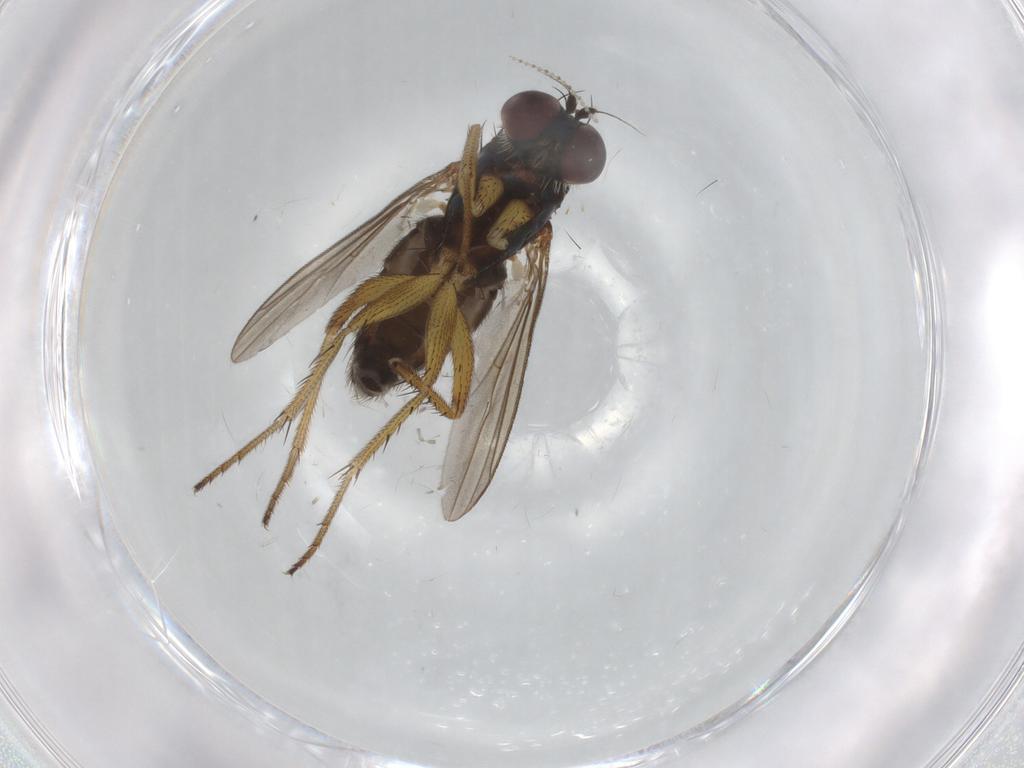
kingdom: Animalia
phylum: Arthropoda
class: Insecta
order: Diptera
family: Dolichopodidae
